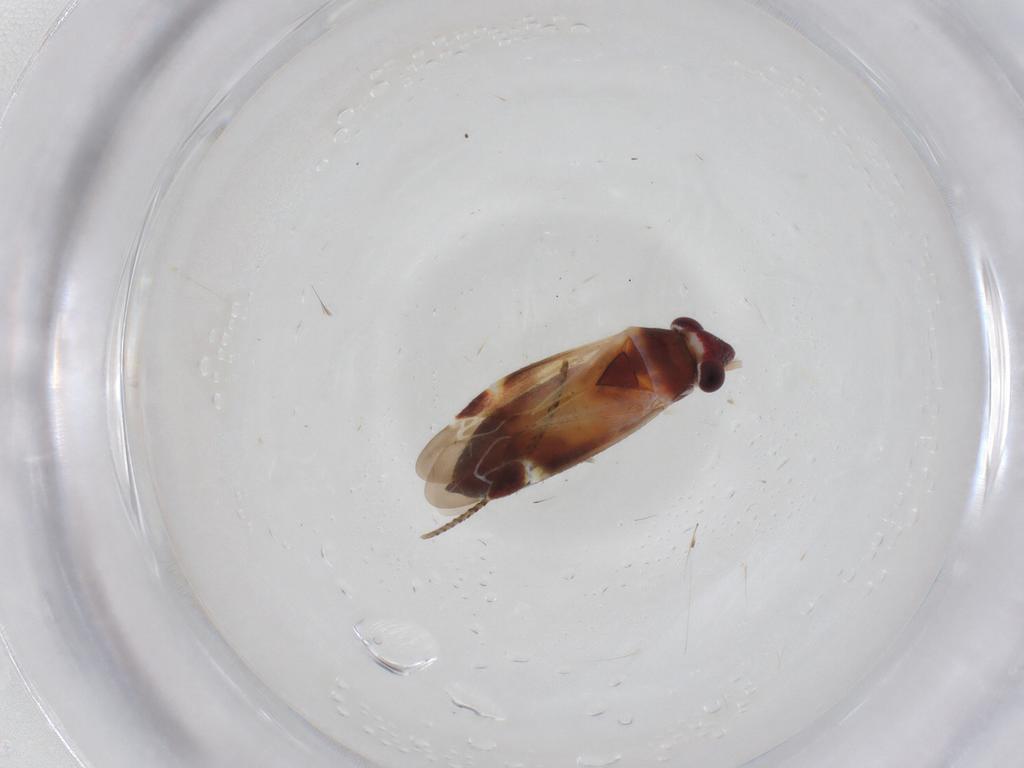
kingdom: Animalia
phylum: Arthropoda
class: Insecta
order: Hemiptera
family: Miridae
